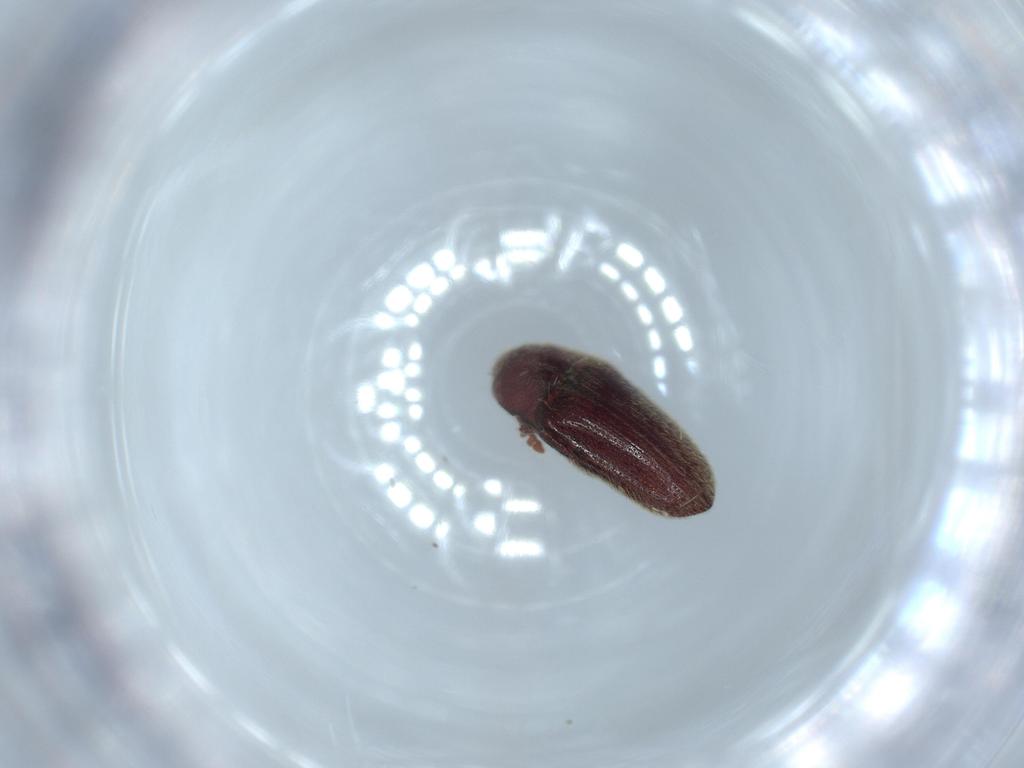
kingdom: Animalia
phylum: Arthropoda
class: Insecta
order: Coleoptera
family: Throscidae
